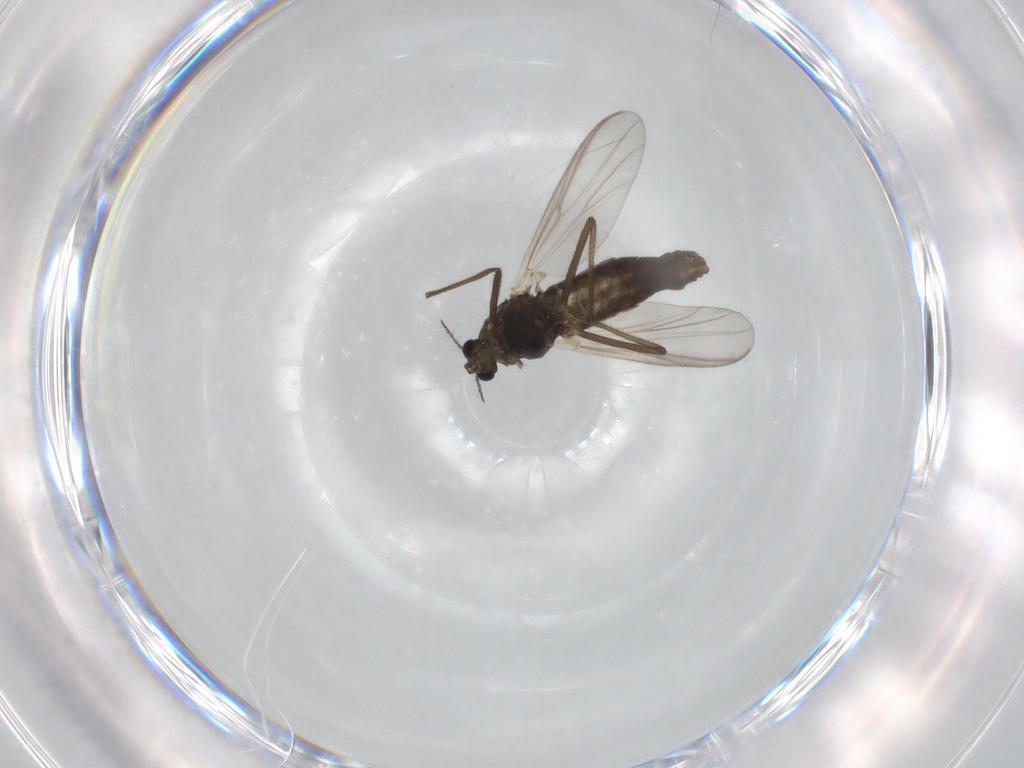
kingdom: Animalia
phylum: Arthropoda
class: Insecta
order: Diptera
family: Chironomidae
